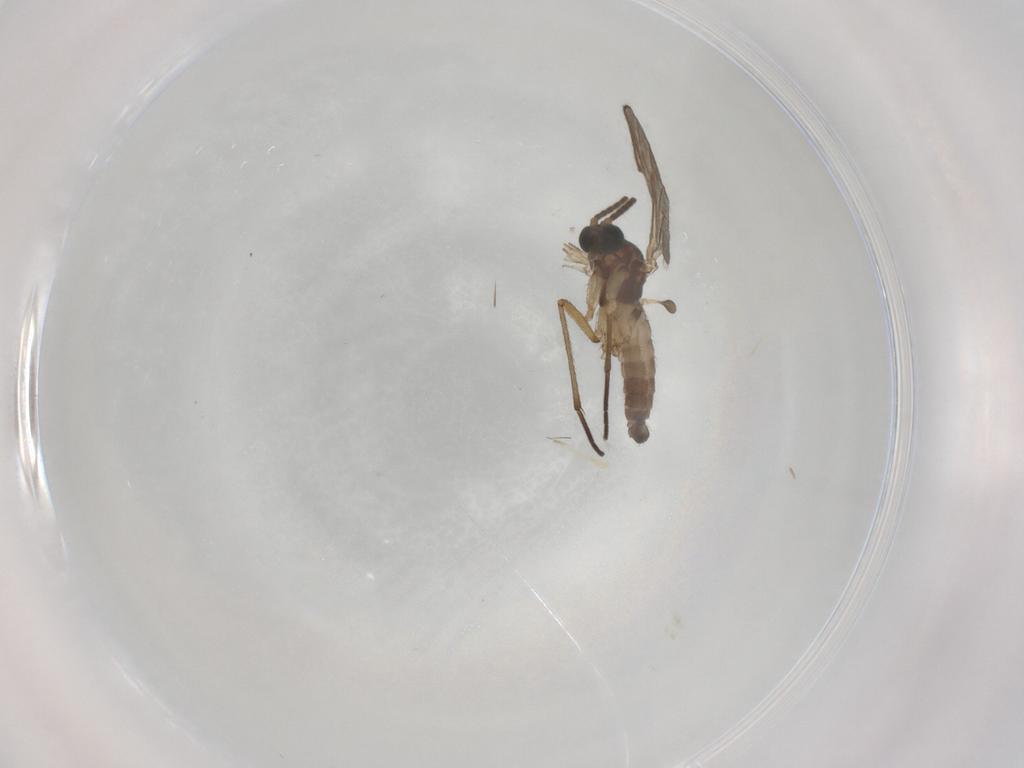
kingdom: Animalia
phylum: Arthropoda
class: Insecta
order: Diptera
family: Sciaridae
